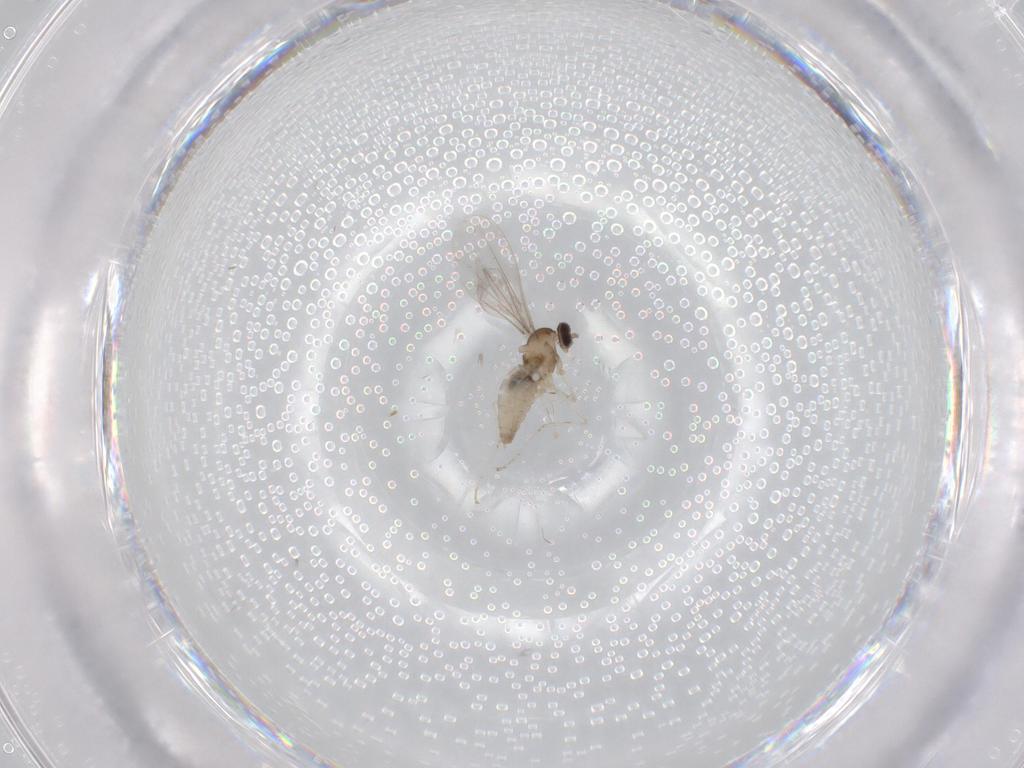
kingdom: Animalia
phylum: Arthropoda
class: Insecta
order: Diptera
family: Cecidomyiidae
